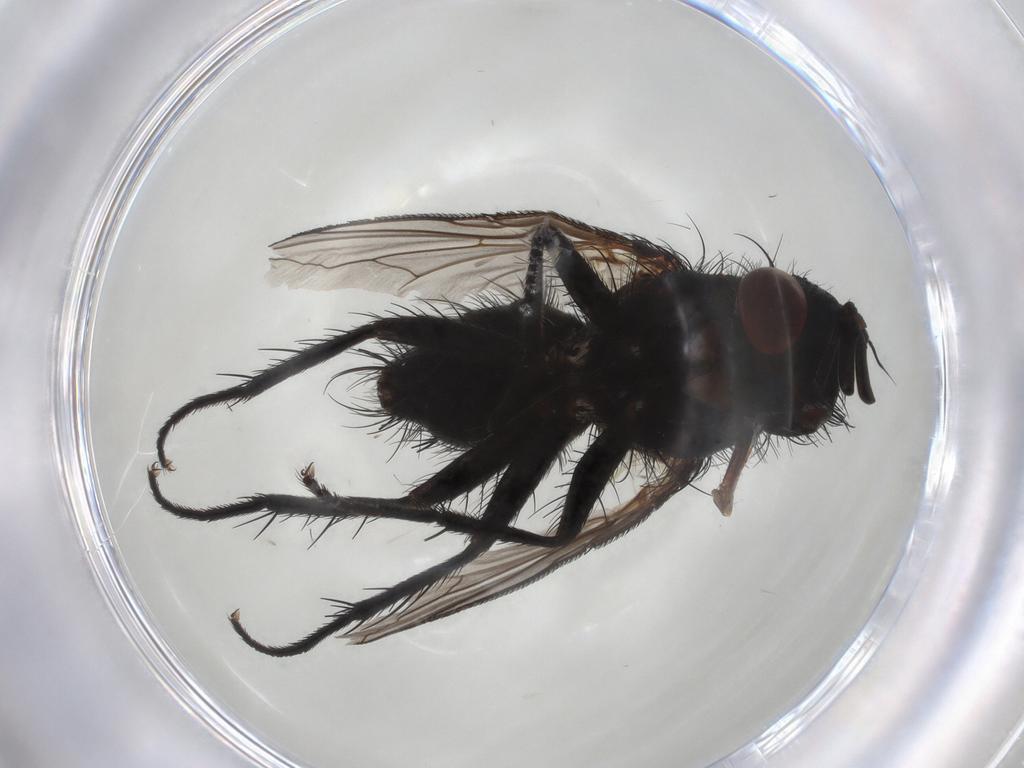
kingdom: Animalia
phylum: Arthropoda
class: Insecta
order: Diptera
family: Tachinidae
